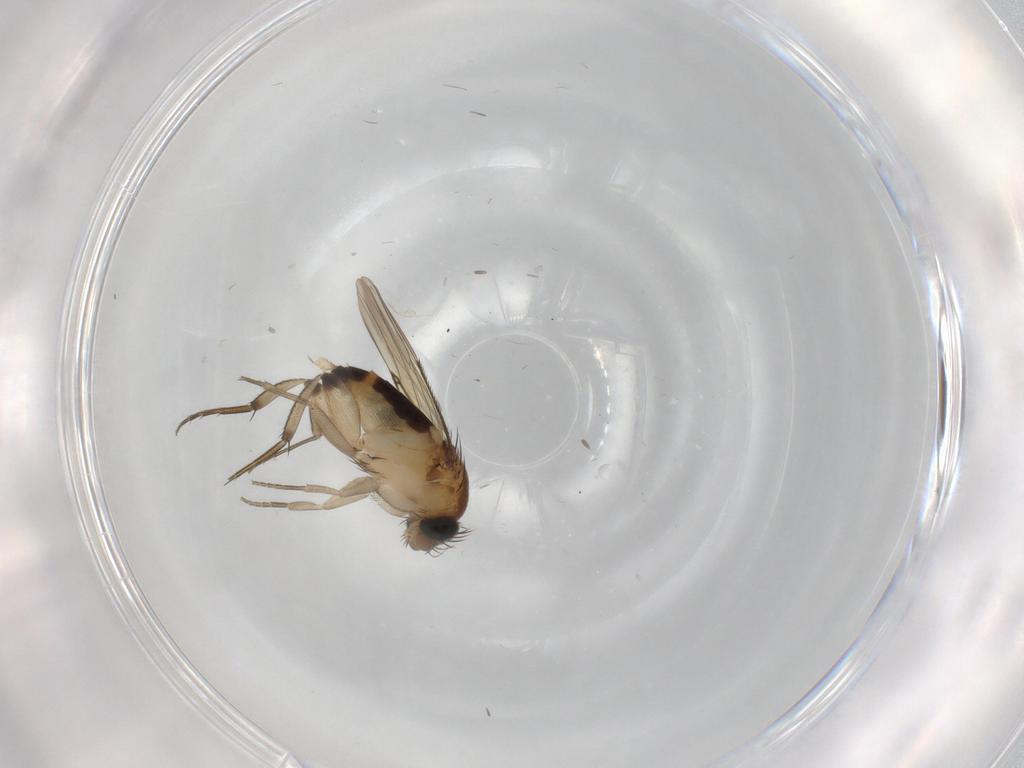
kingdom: Animalia
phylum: Arthropoda
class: Insecta
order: Diptera
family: Phoridae
